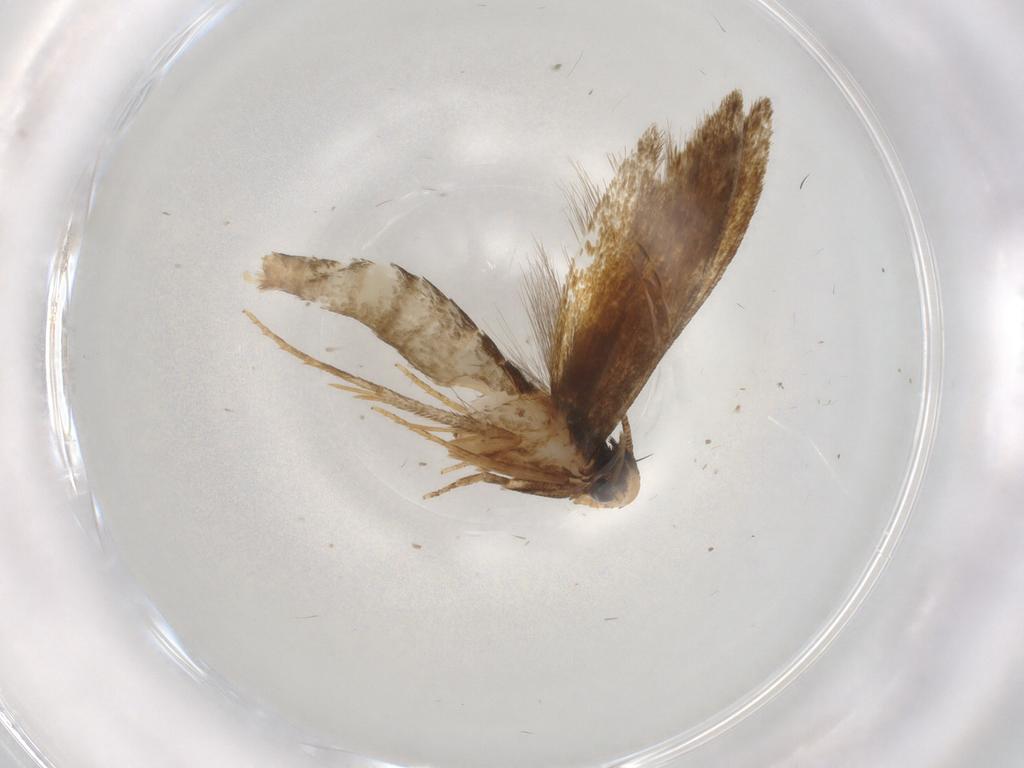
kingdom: Animalia
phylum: Arthropoda
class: Insecta
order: Lepidoptera
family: Tineidae
